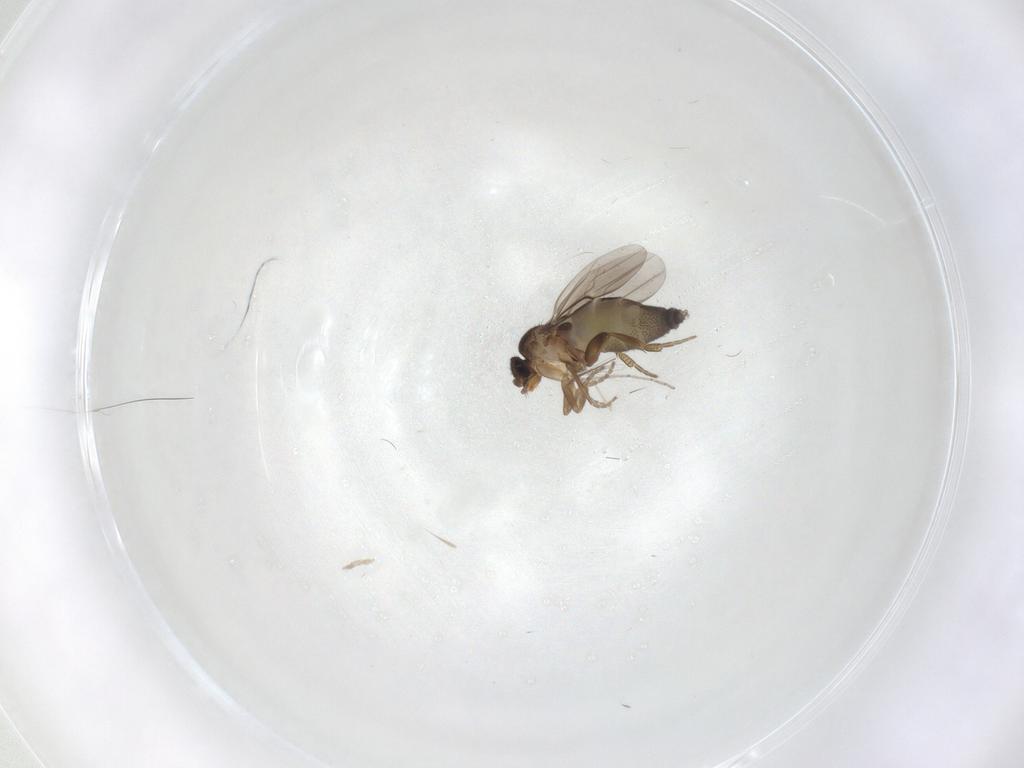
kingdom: Animalia
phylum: Arthropoda
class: Insecta
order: Diptera
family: Phoridae
